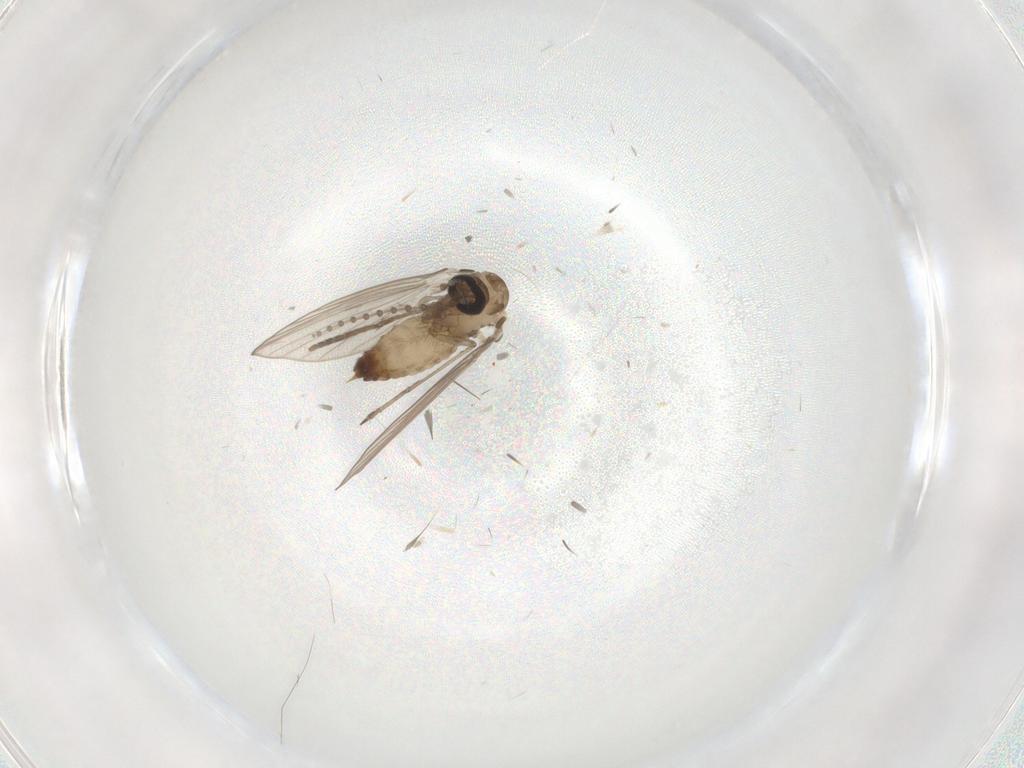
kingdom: Animalia
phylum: Arthropoda
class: Insecta
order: Diptera
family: Psychodidae
